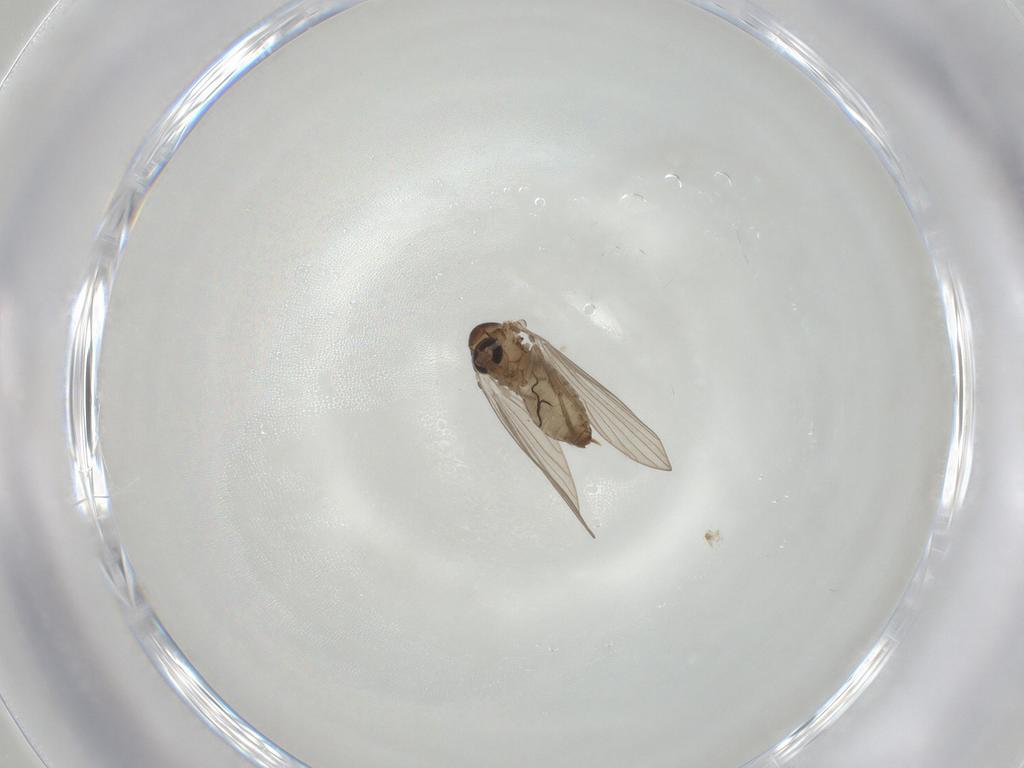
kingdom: Animalia
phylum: Arthropoda
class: Insecta
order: Diptera
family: Psychodidae
